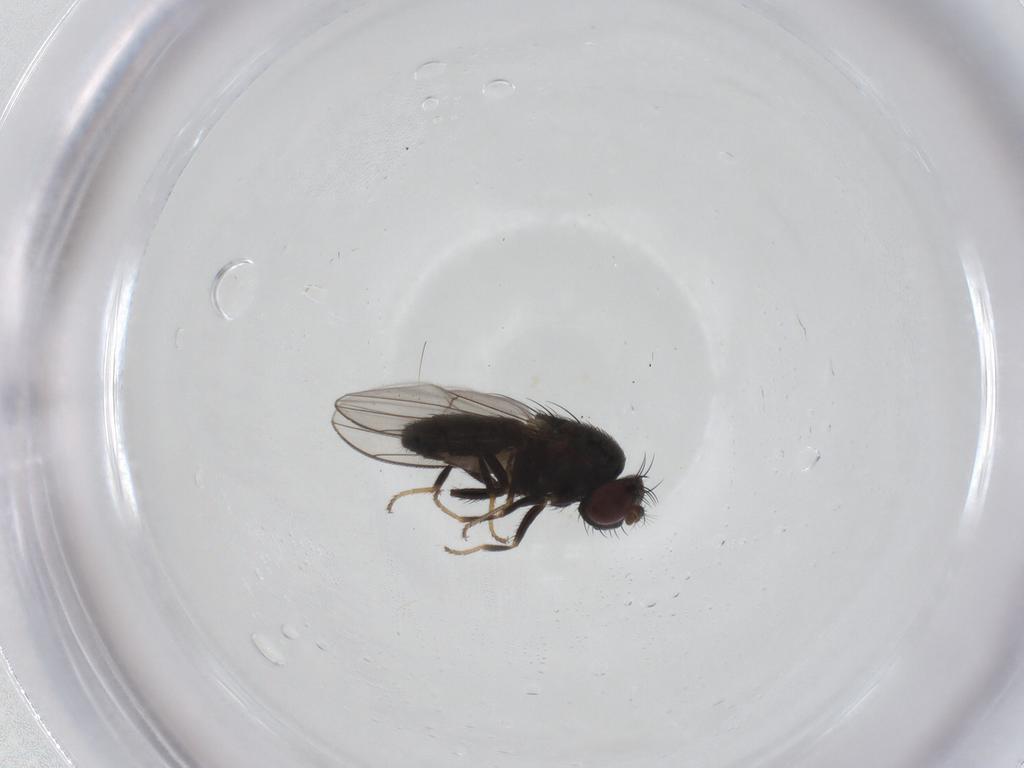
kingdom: Animalia
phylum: Arthropoda
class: Insecta
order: Diptera
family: Ephydridae
